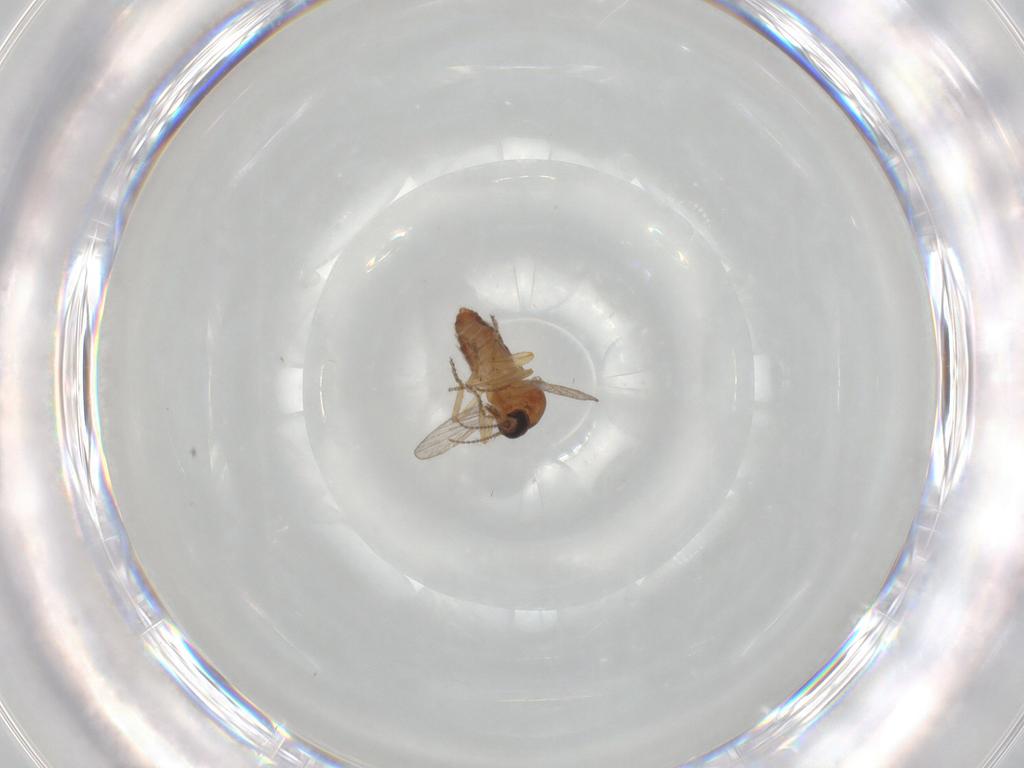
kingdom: Animalia
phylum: Arthropoda
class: Insecta
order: Diptera
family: Ceratopogonidae
